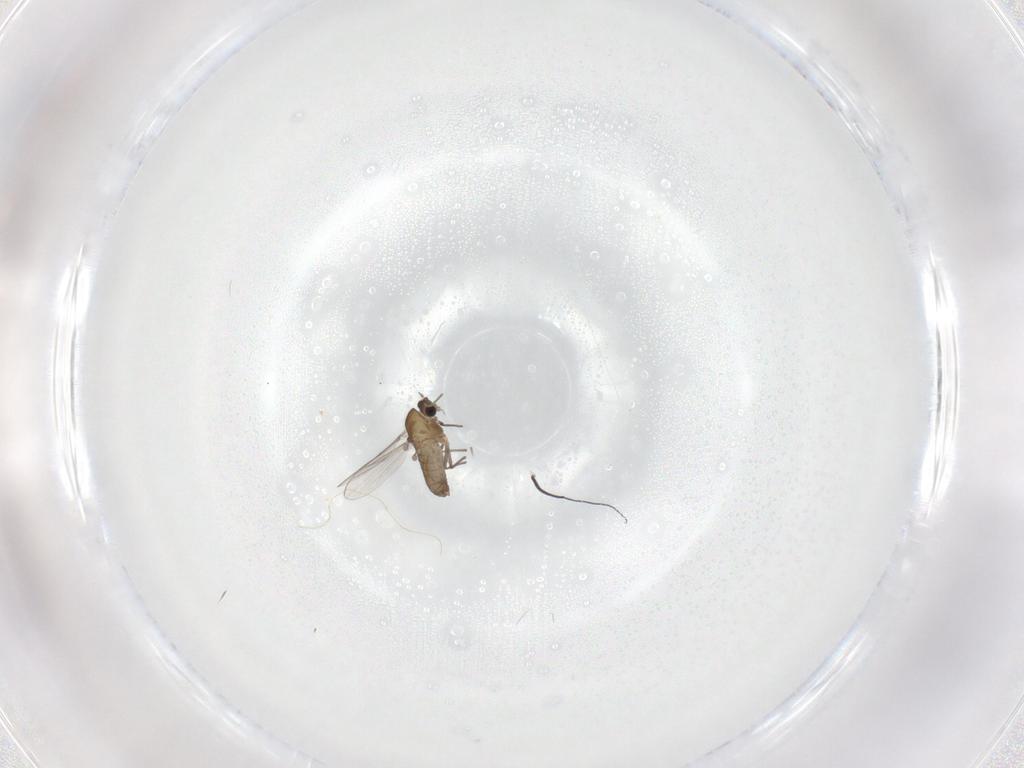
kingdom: Animalia
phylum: Arthropoda
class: Insecta
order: Diptera
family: Chironomidae
